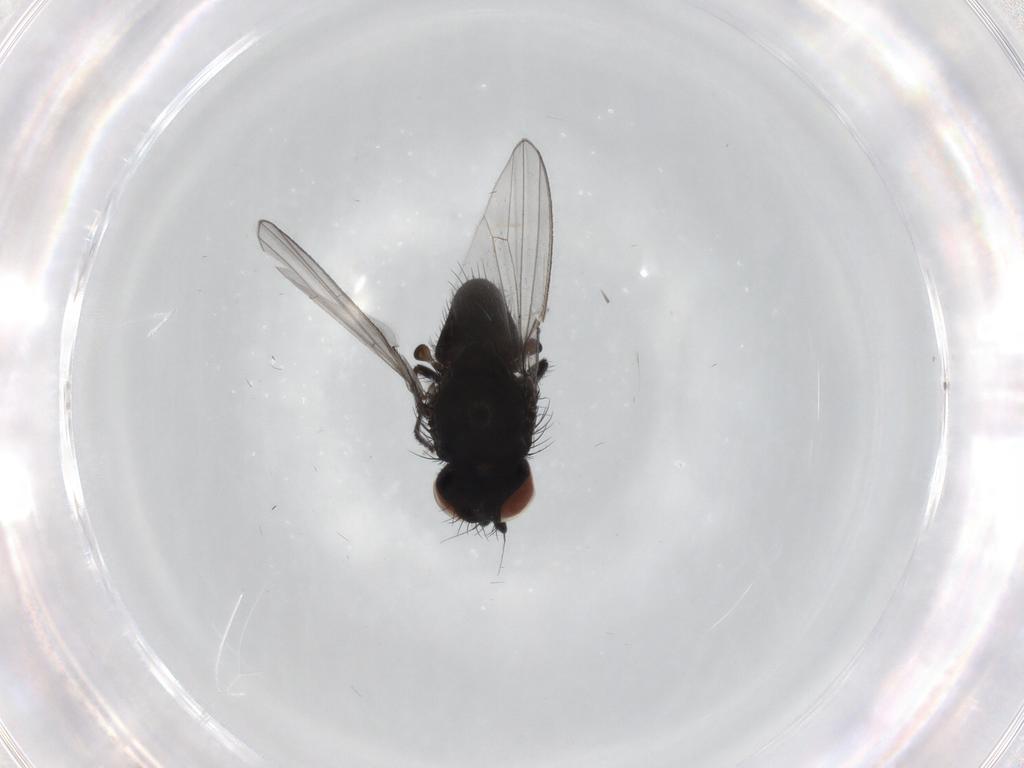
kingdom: Animalia
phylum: Arthropoda
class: Insecta
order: Diptera
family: Milichiidae
